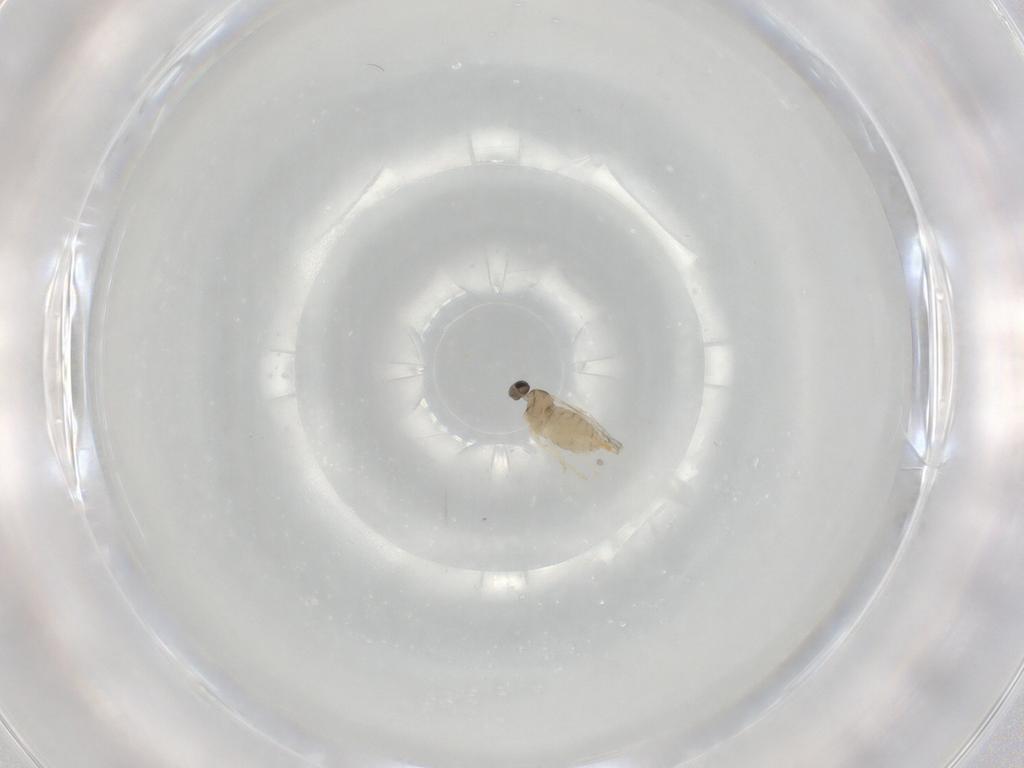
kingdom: Animalia
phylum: Arthropoda
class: Insecta
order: Diptera
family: Cecidomyiidae
